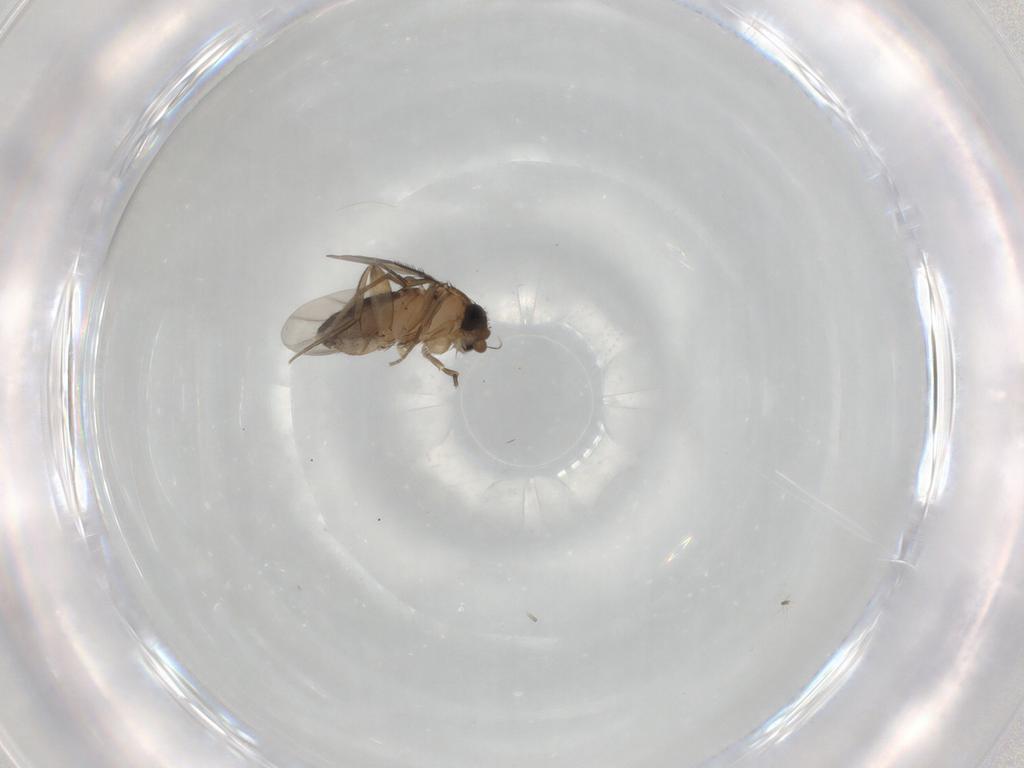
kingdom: Animalia
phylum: Arthropoda
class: Insecta
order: Diptera
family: Phoridae
